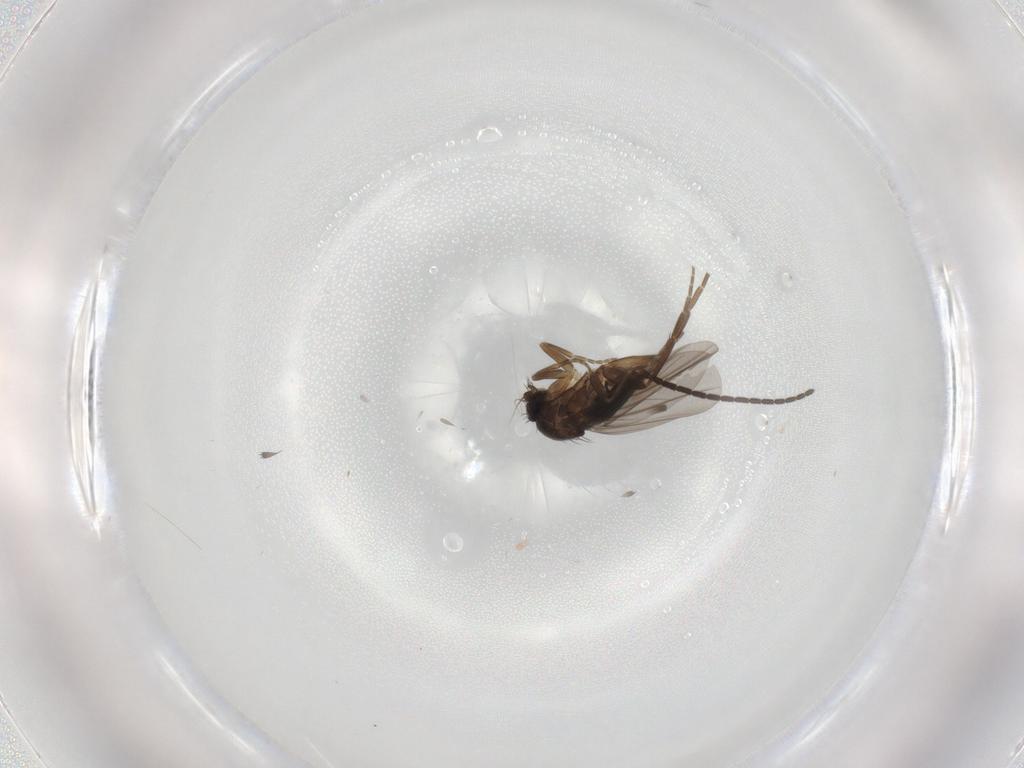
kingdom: Animalia
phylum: Arthropoda
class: Insecta
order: Diptera
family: Sciaridae
